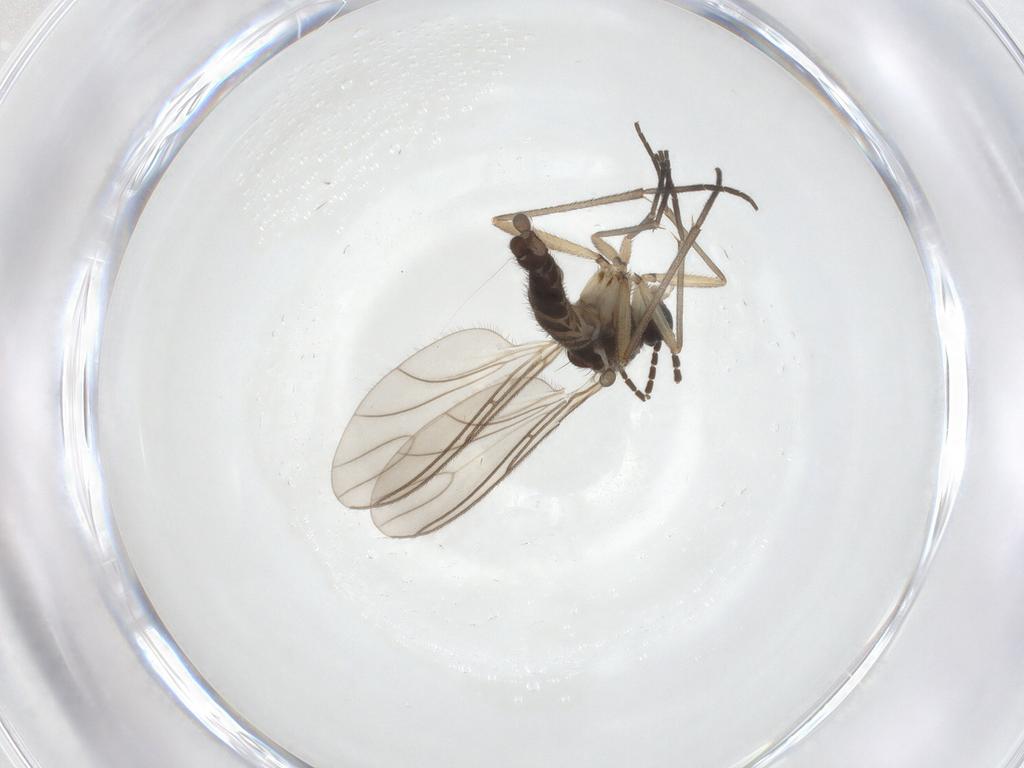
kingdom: Animalia
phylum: Arthropoda
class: Insecta
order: Diptera
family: Sciaridae
